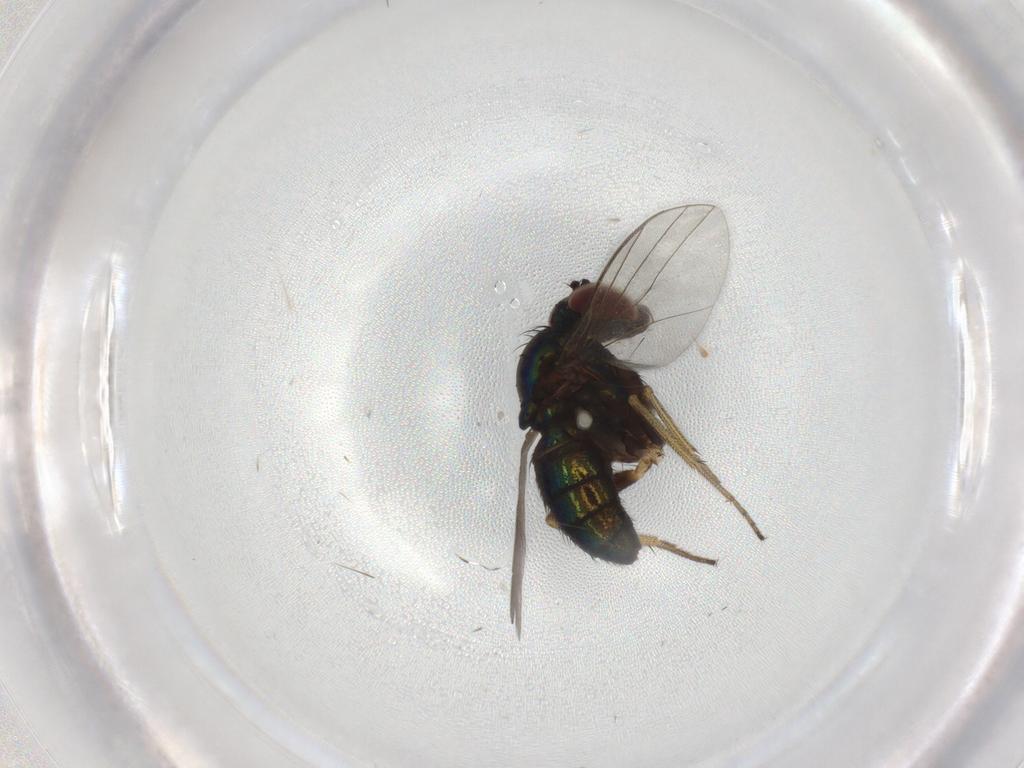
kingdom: Animalia
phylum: Arthropoda
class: Insecta
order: Diptera
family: Dolichopodidae
